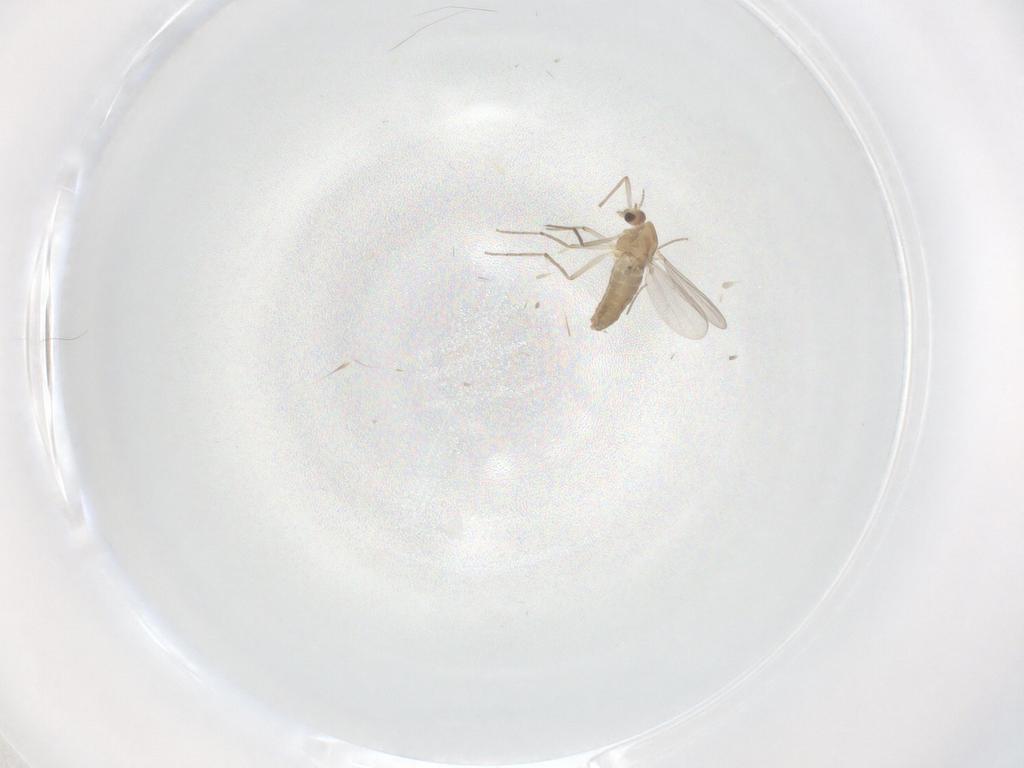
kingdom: Animalia
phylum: Arthropoda
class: Insecta
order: Diptera
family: Chironomidae
